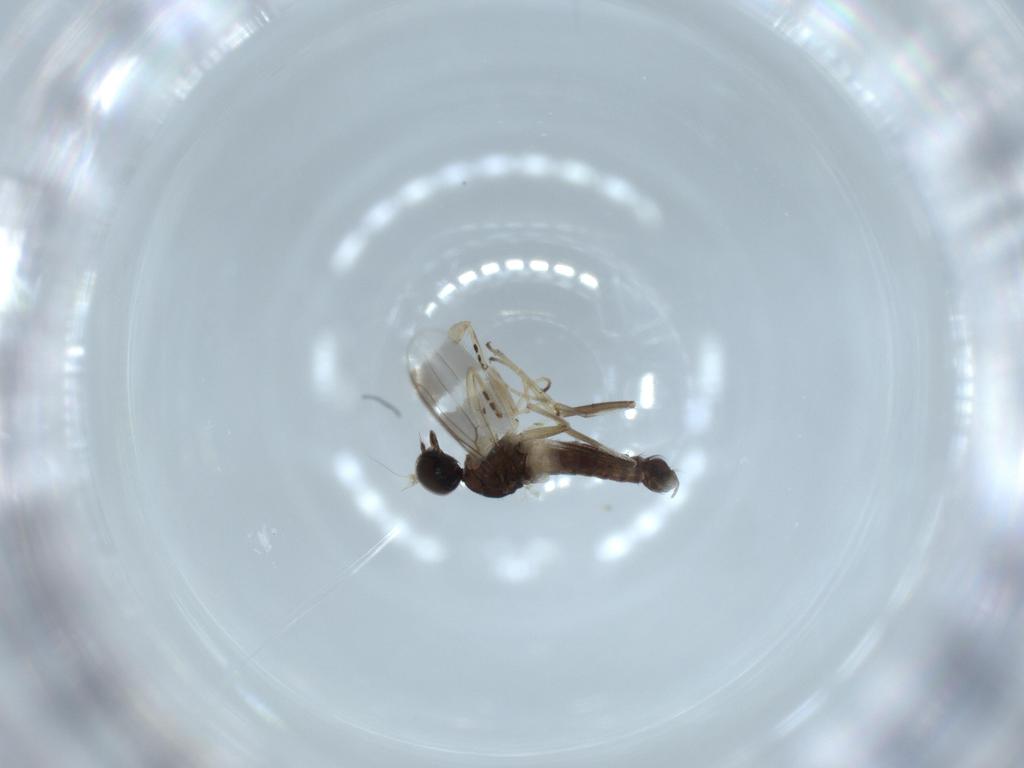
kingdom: Animalia
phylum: Arthropoda
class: Insecta
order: Diptera
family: Hybotidae
